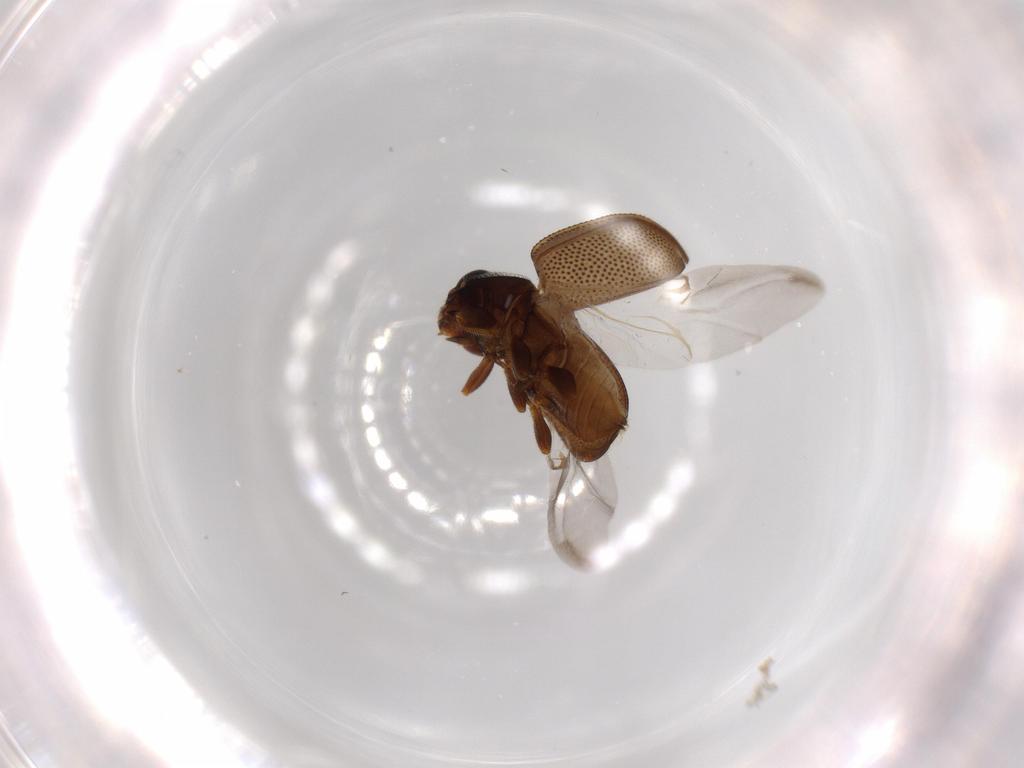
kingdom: Animalia
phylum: Arthropoda
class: Insecta
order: Coleoptera
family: Coccinellidae
